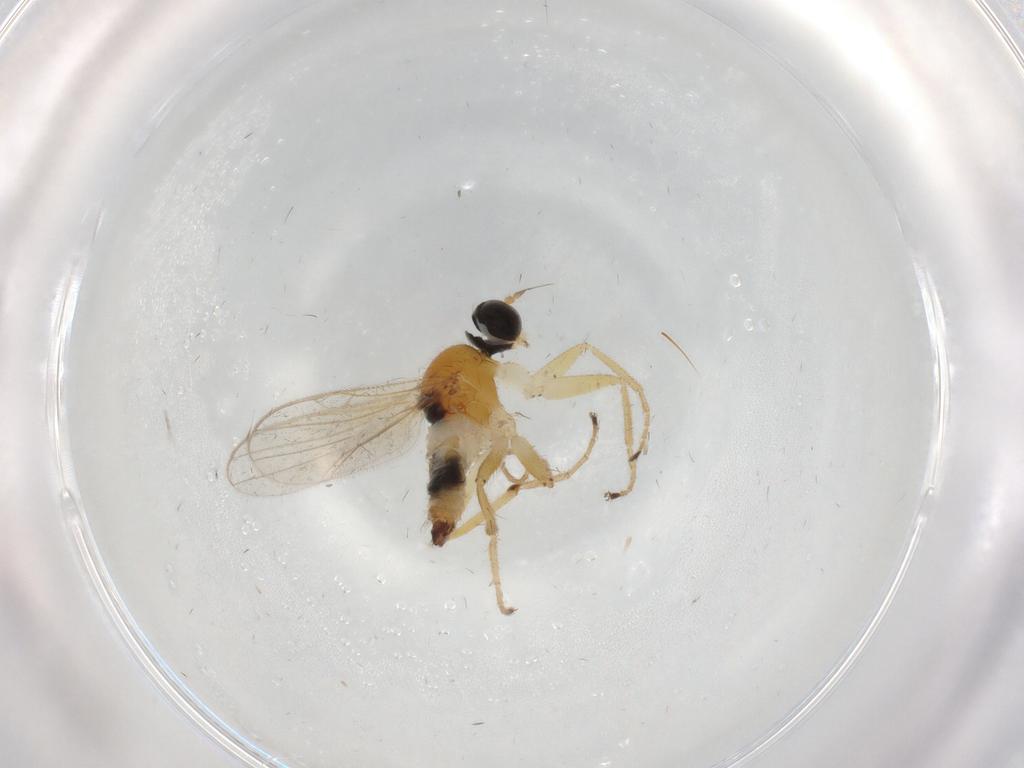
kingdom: Animalia
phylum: Arthropoda
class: Insecta
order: Diptera
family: Hybotidae
